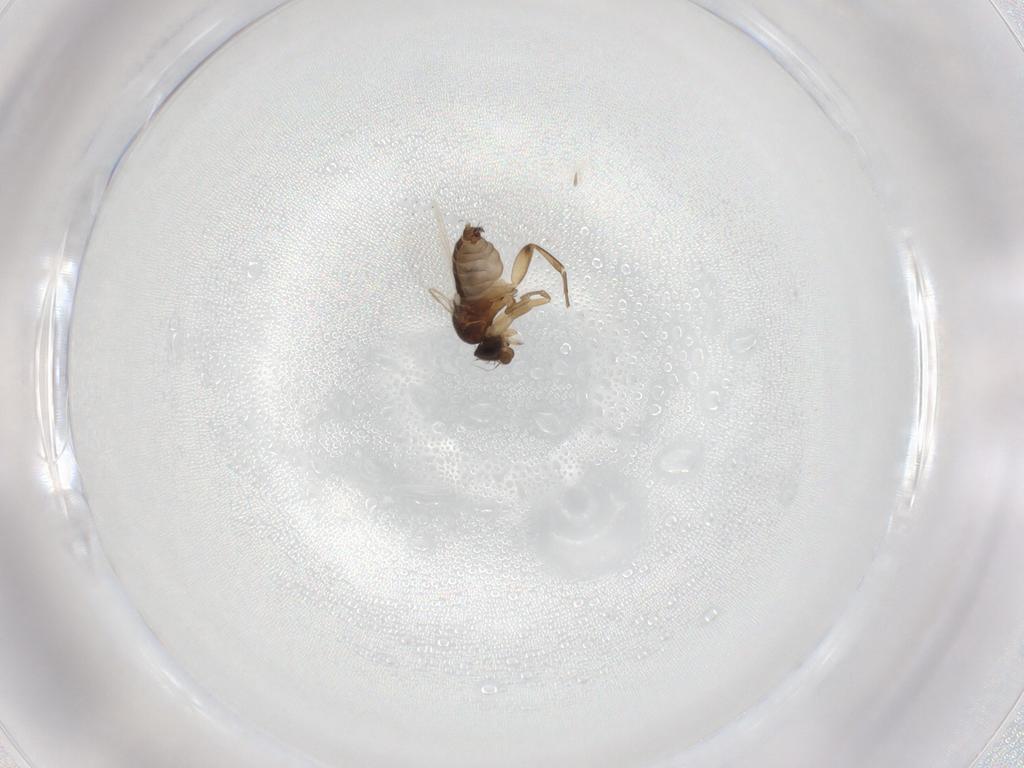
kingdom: Animalia
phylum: Arthropoda
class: Insecta
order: Diptera
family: Phoridae
